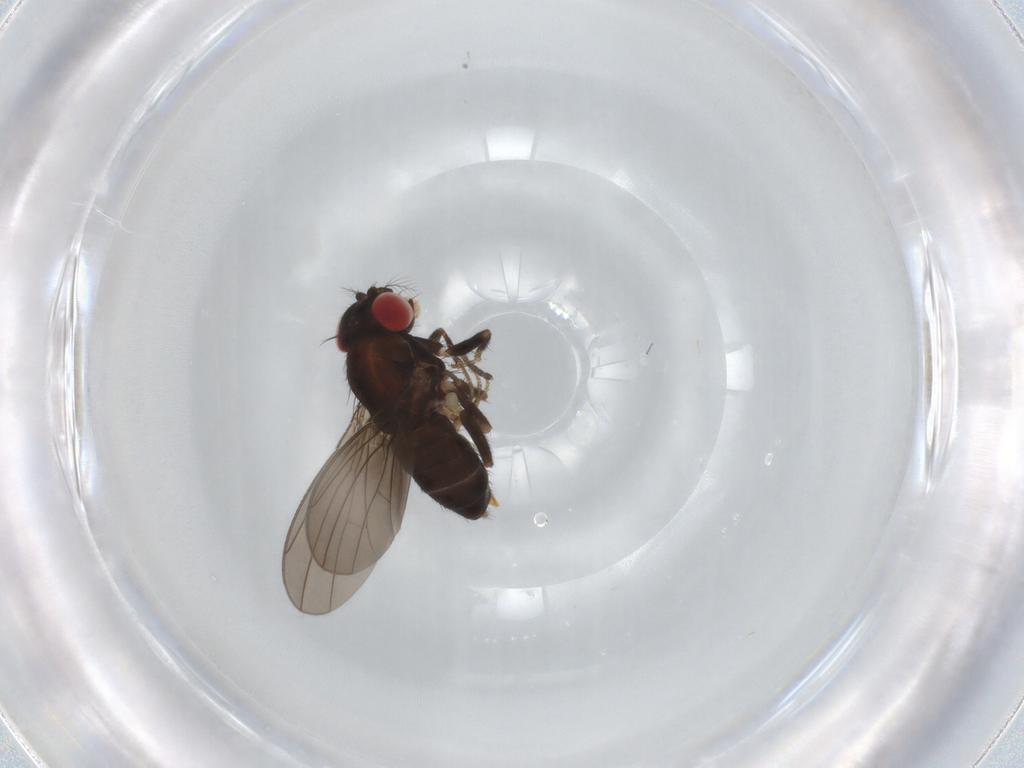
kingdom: Animalia
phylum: Arthropoda
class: Insecta
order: Diptera
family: Drosophilidae
